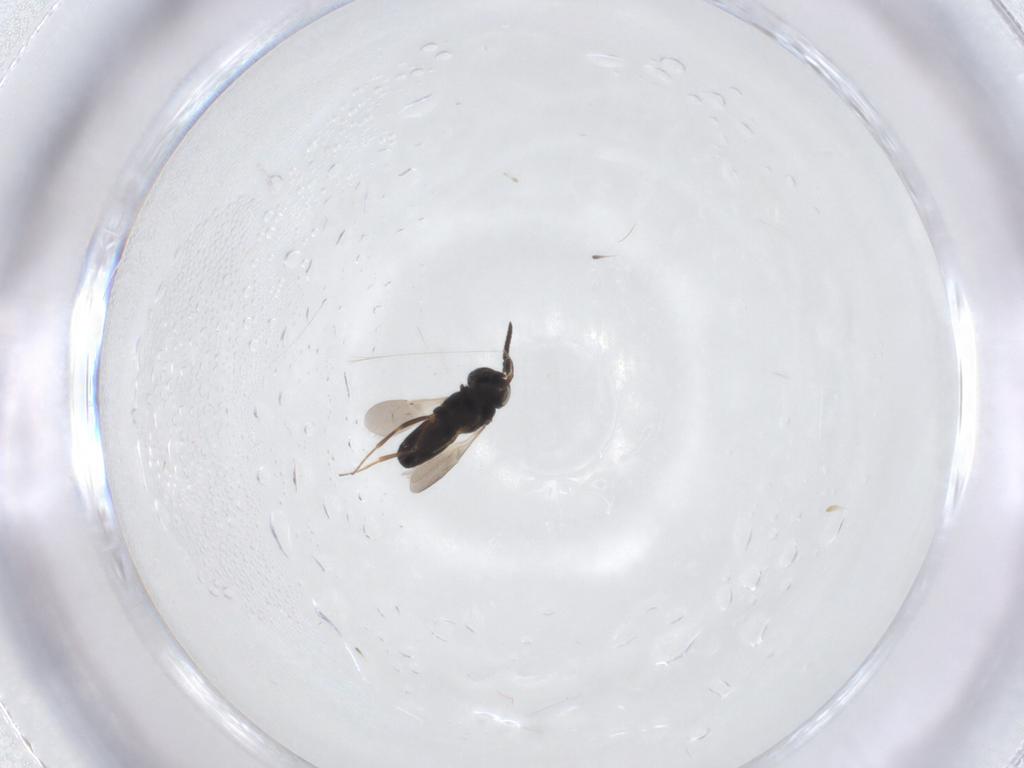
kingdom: Animalia
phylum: Arthropoda
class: Insecta
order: Hymenoptera
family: Scelionidae
